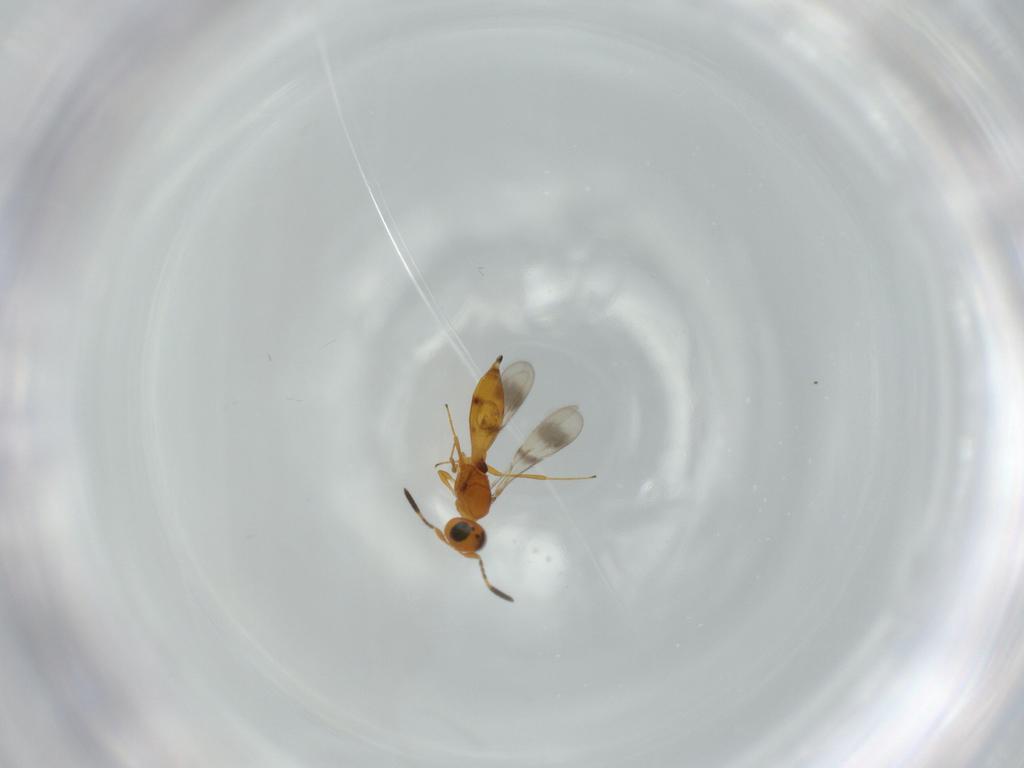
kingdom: Animalia
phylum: Arthropoda
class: Insecta
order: Hymenoptera
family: Scelionidae
